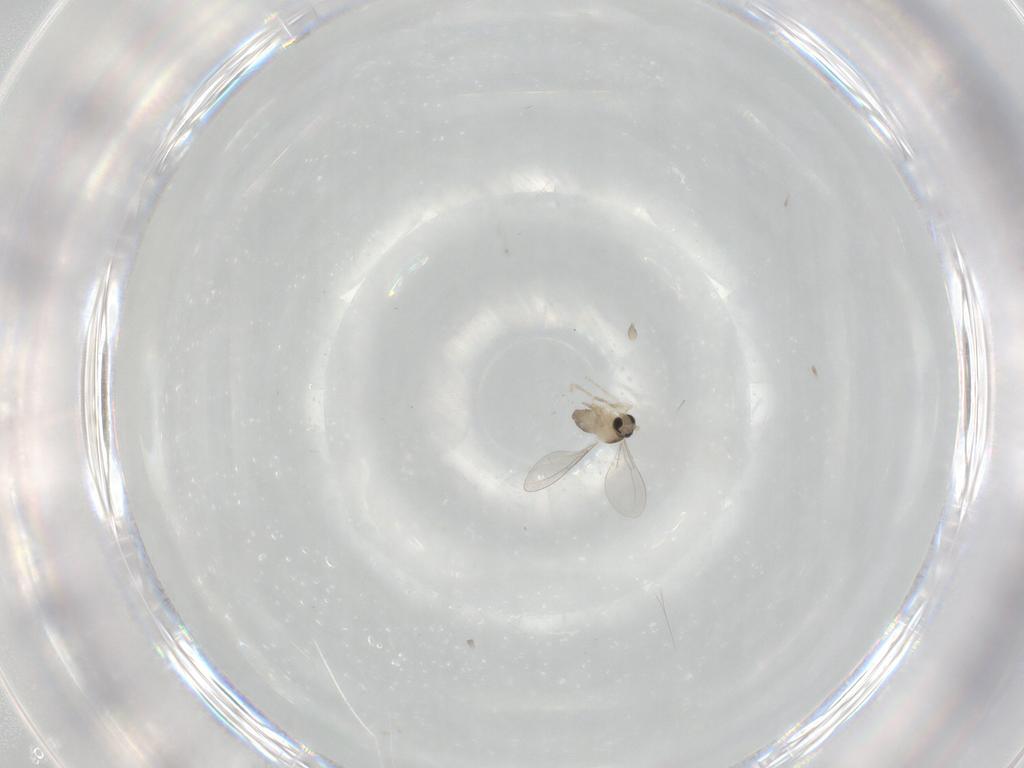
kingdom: Animalia
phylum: Arthropoda
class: Insecta
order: Diptera
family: Cecidomyiidae
